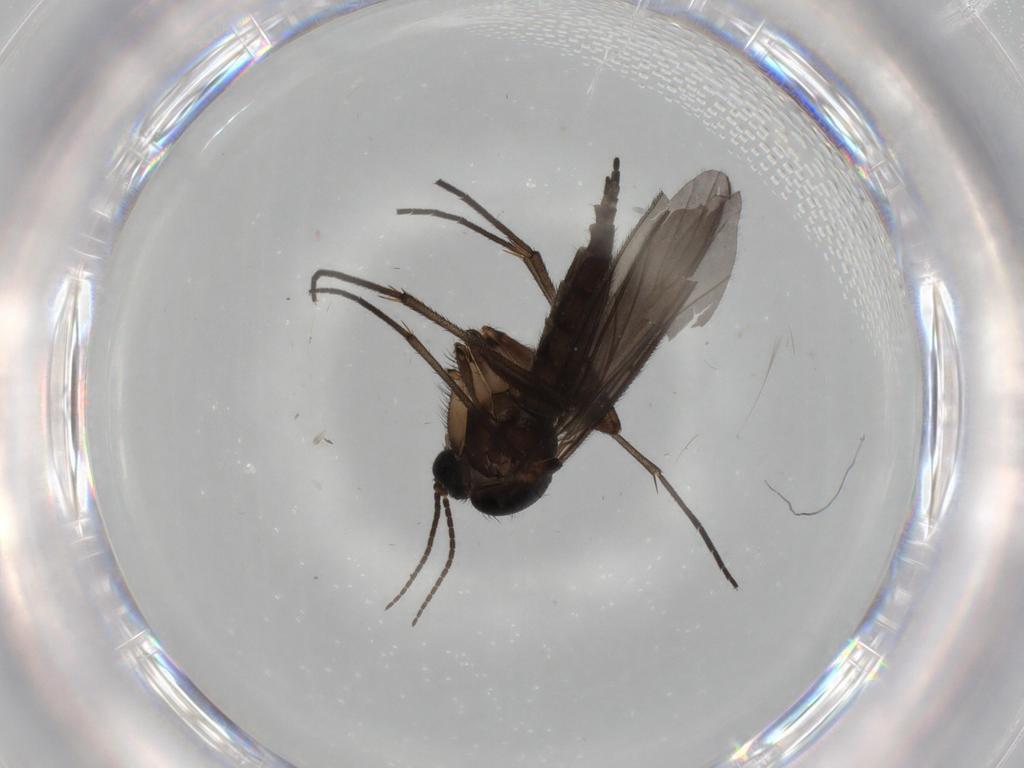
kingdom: Animalia
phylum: Arthropoda
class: Insecta
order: Diptera
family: Sciaridae
